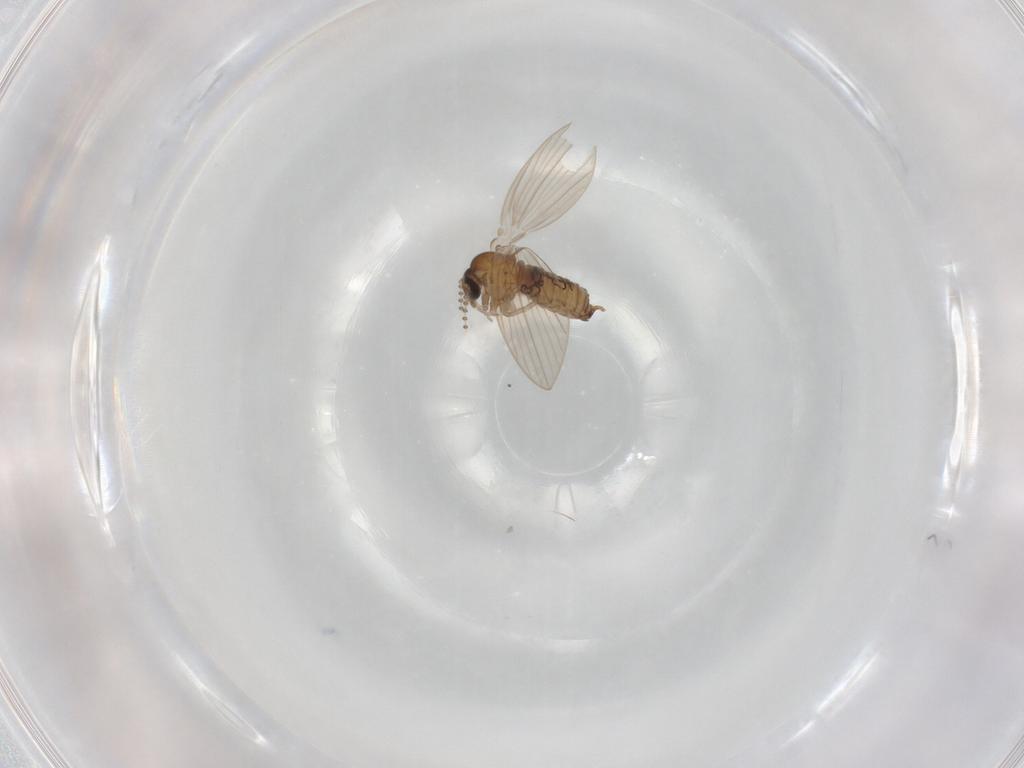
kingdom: Animalia
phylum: Arthropoda
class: Insecta
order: Diptera
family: Psychodidae
